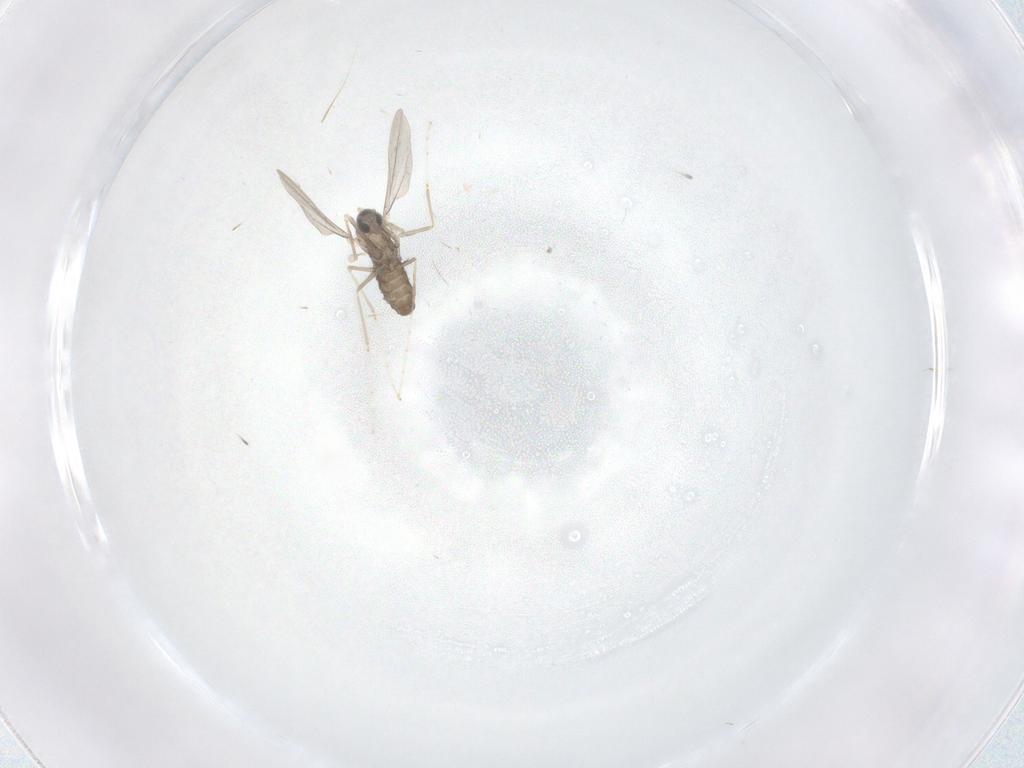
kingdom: Animalia
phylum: Arthropoda
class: Insecta
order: Diptera
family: Cecidomyiidae
